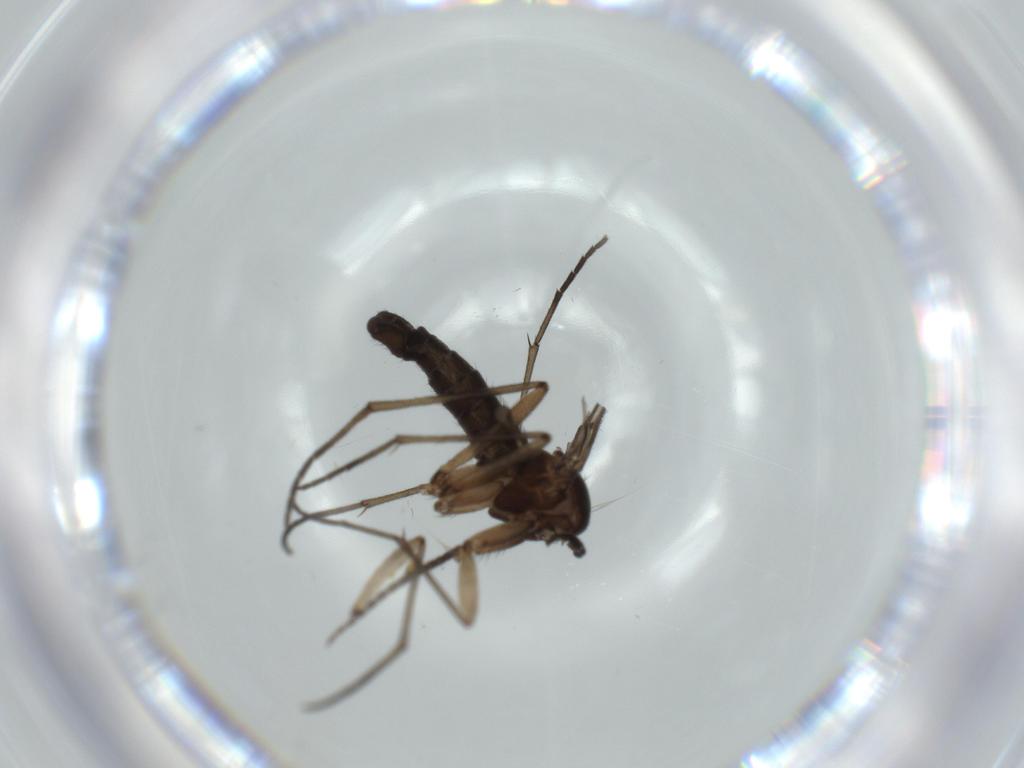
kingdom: Animalia
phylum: Arthropoda
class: Insecta
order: Diptera
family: Sciaridae
